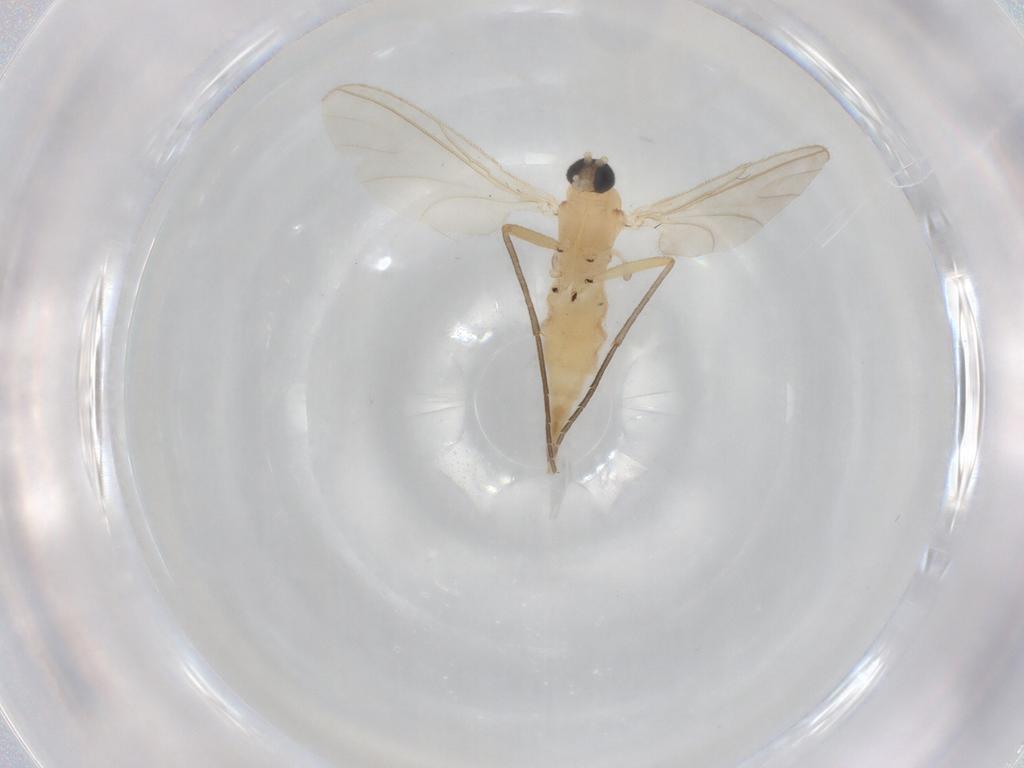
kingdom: Animalia
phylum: Arthropoda
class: Insecta
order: Diptera
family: Sciaridae
